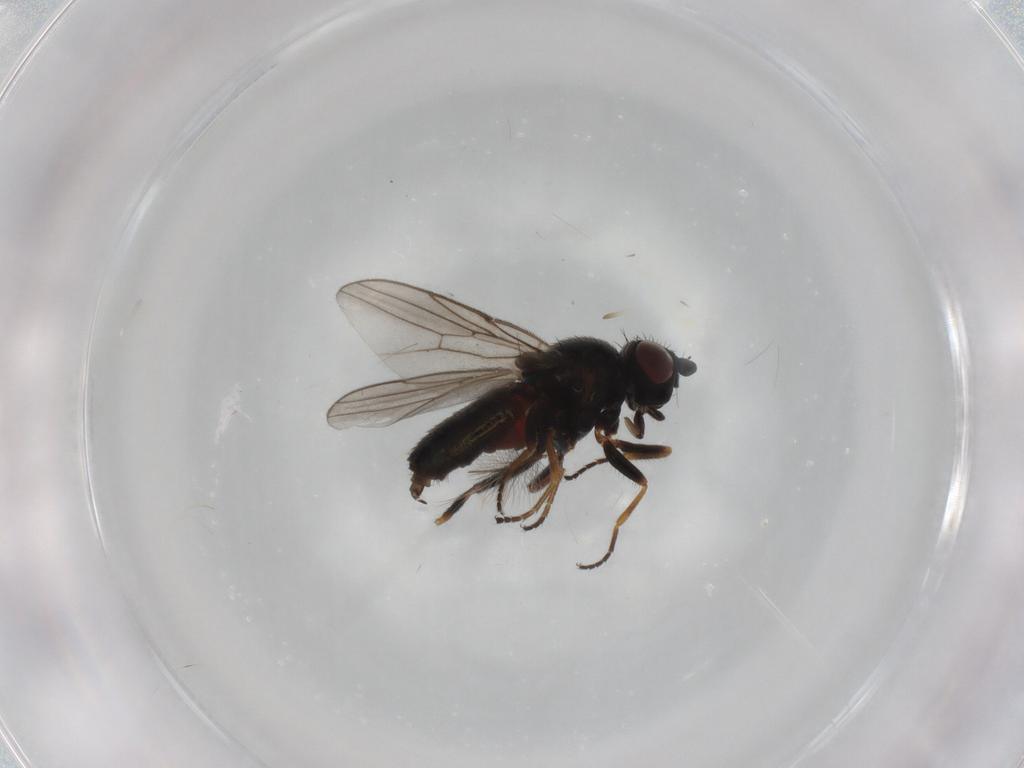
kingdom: Animalia
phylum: Arthropoda
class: Insecta
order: Diptera
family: Chloropidae
